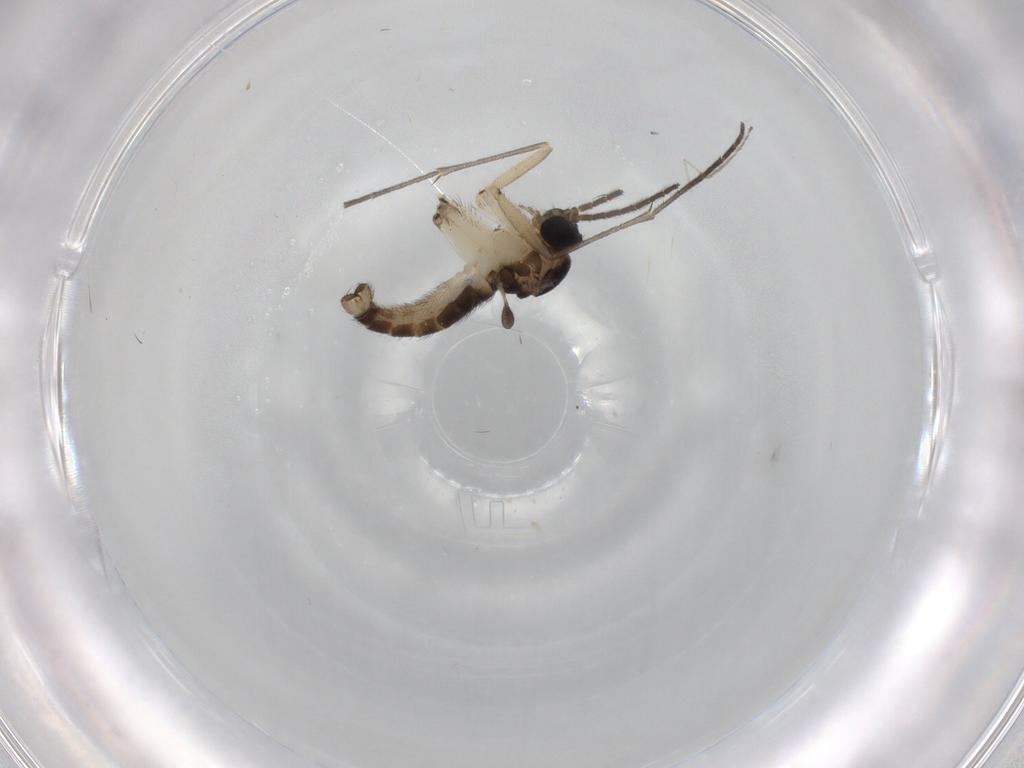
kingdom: Animalia
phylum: Arthropoda
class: Insecta
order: Diptera
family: Sciaridae
